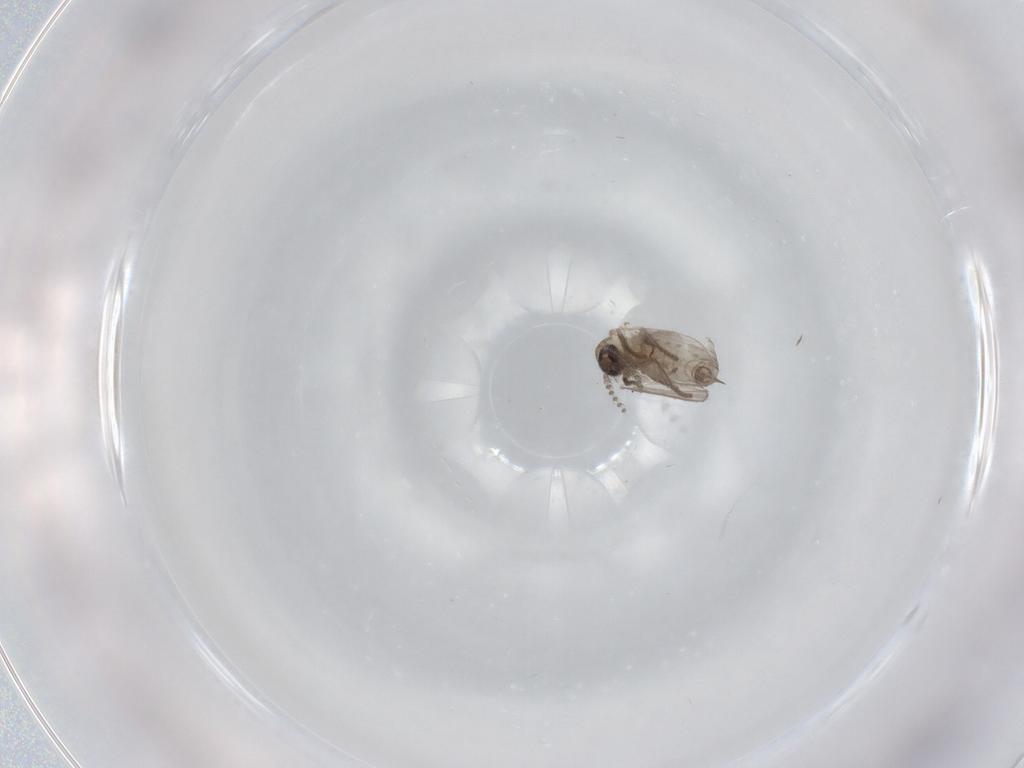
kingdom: Animalia
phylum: Arthropoda
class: Insecta
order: Diptera
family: Psychodidae
